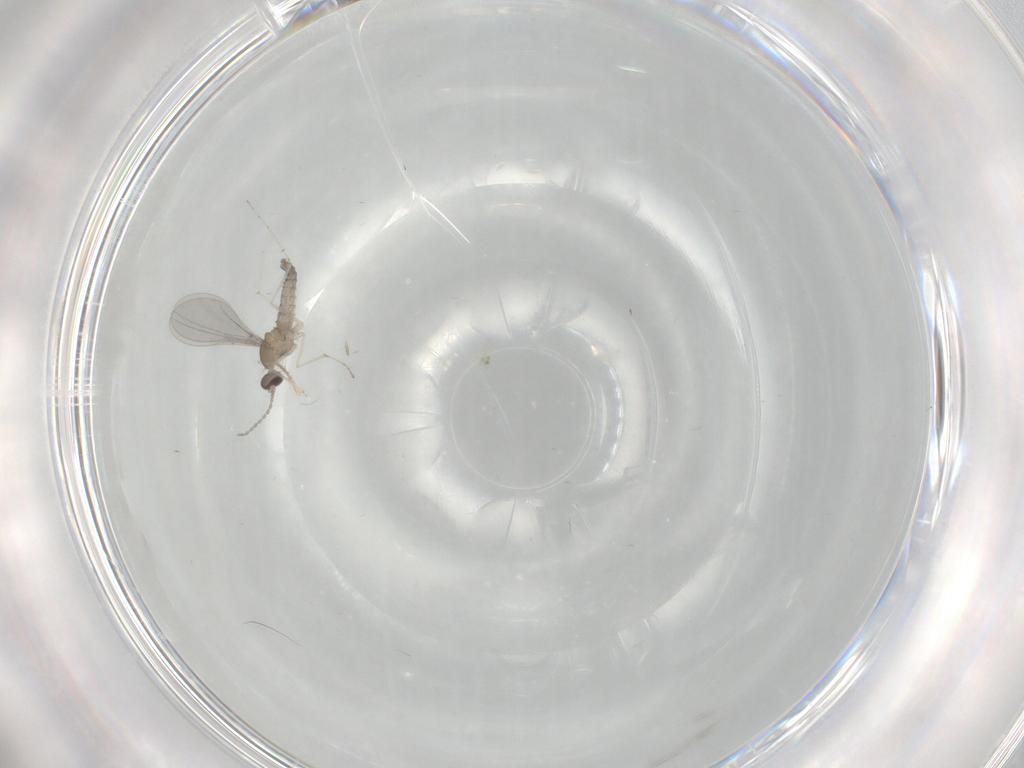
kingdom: Animalia
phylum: Arthropoda
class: Insecta
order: Diptera
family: Cecidomyiidae
